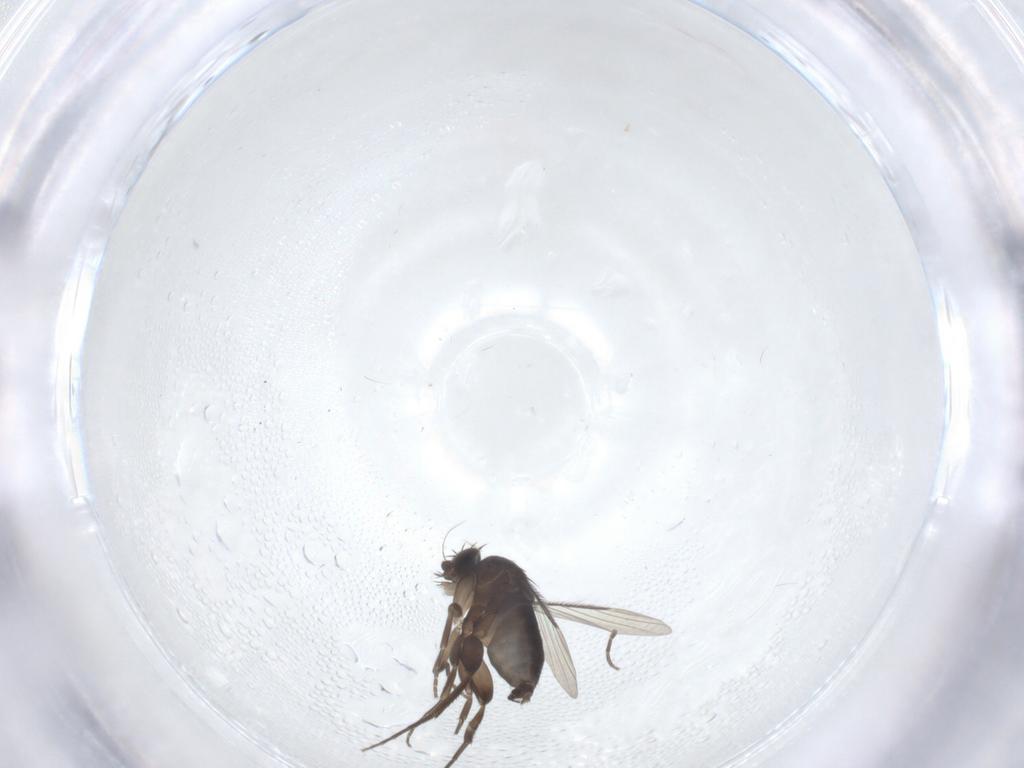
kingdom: Animalia
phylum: Arthropoda
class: Insecta
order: Diptera
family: Phoridae
